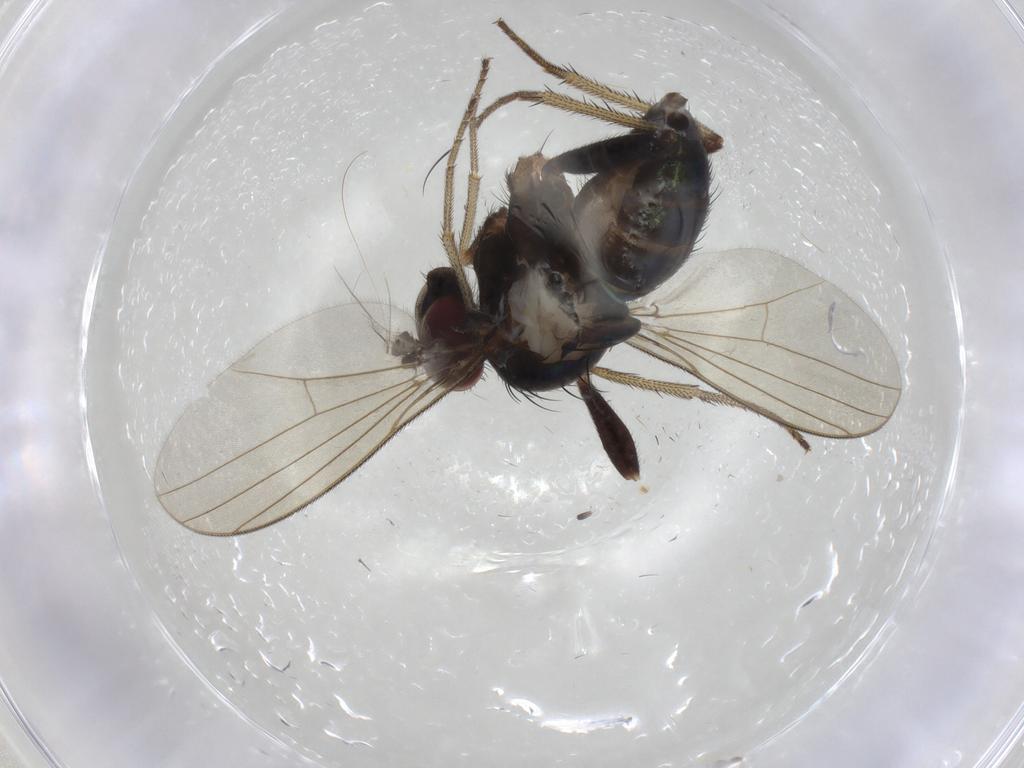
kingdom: Animalia
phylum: Arthropoda
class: Insecta
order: Diptera
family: Dolichopodidae
